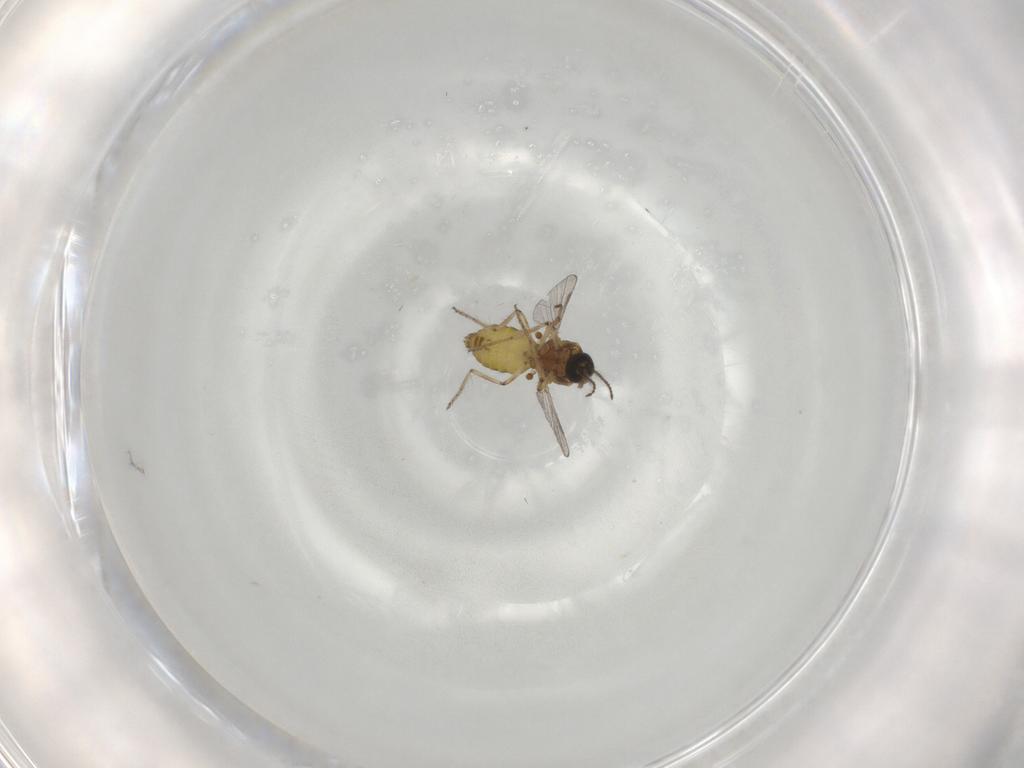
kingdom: Animalia
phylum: Arthropoda
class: Insecta
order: Diptera
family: Ceratopogonidae
